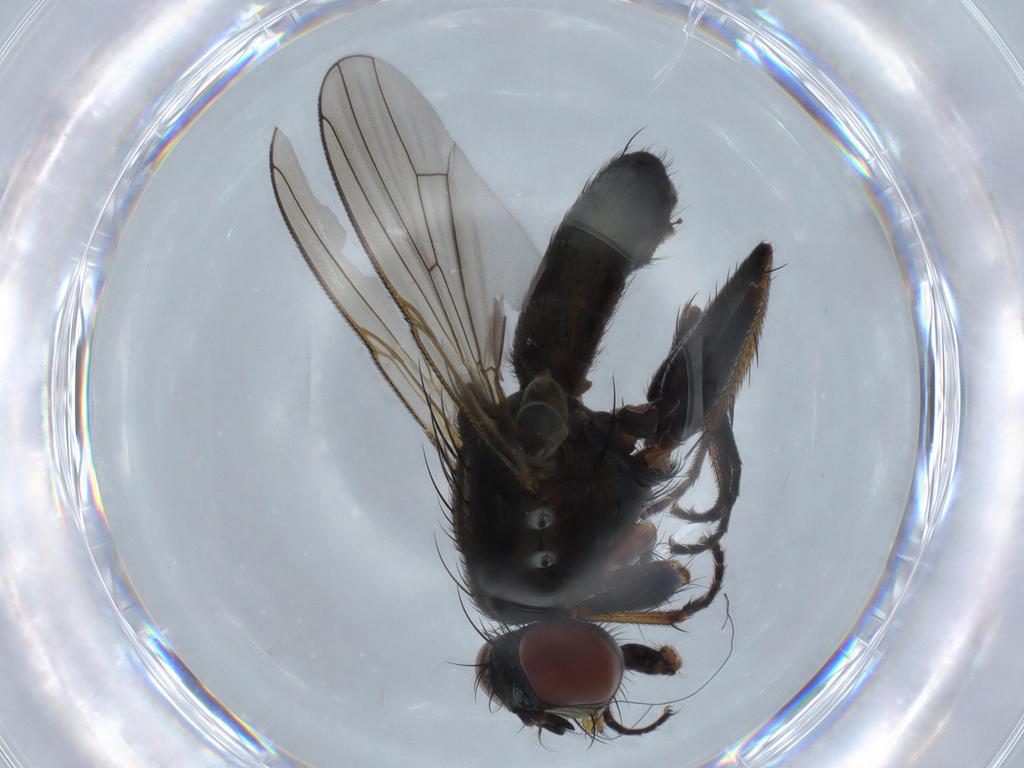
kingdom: Animalia
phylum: Arthropoda
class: Insecta
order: Diptera
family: Muscidae
